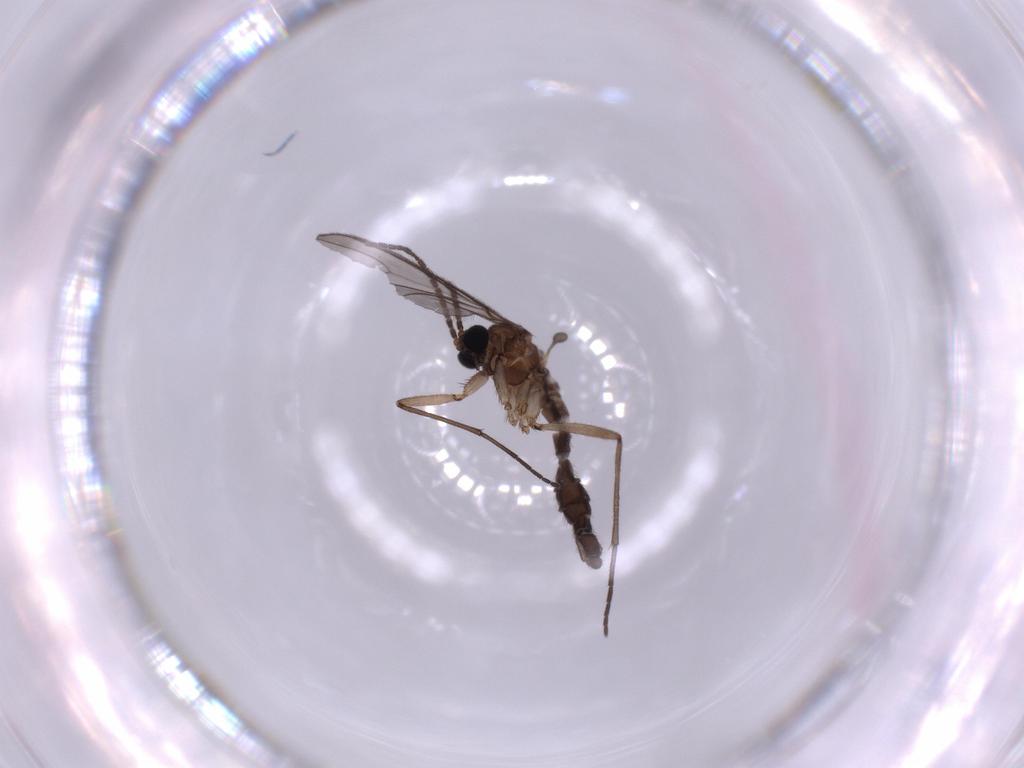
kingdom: Animalia
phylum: Arthropoda
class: Insecta
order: Diptera
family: Sciaridae
